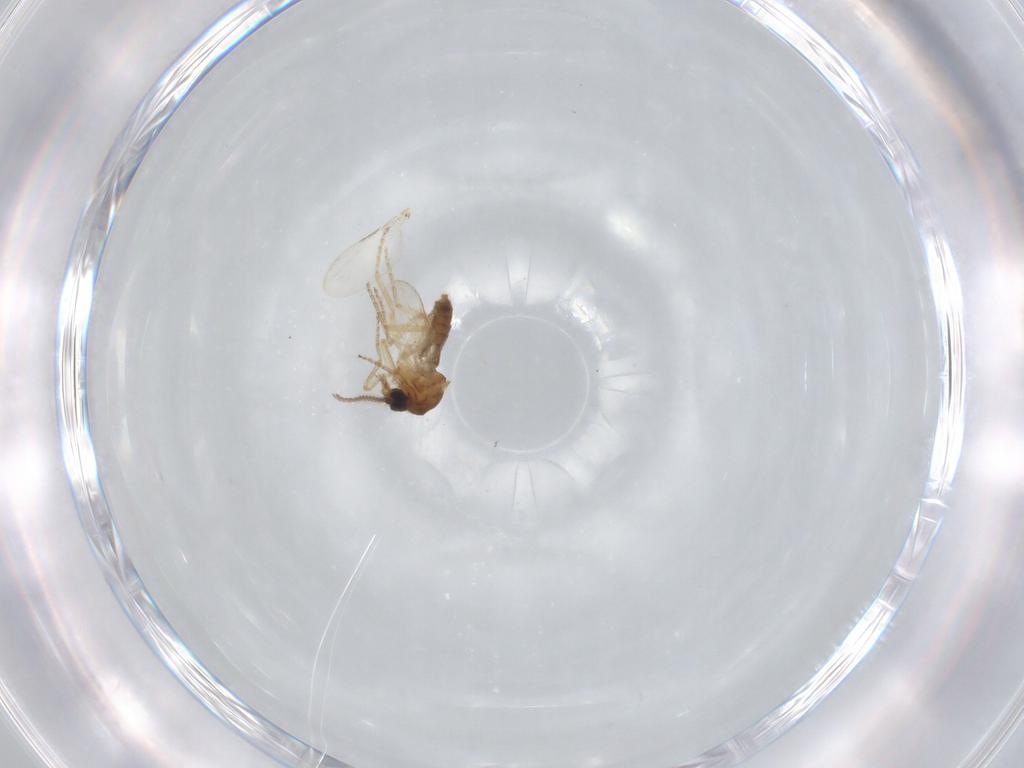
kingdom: Animalia
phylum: Arthropoda
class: Insecta
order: Diptera
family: Ceratopogonidae
